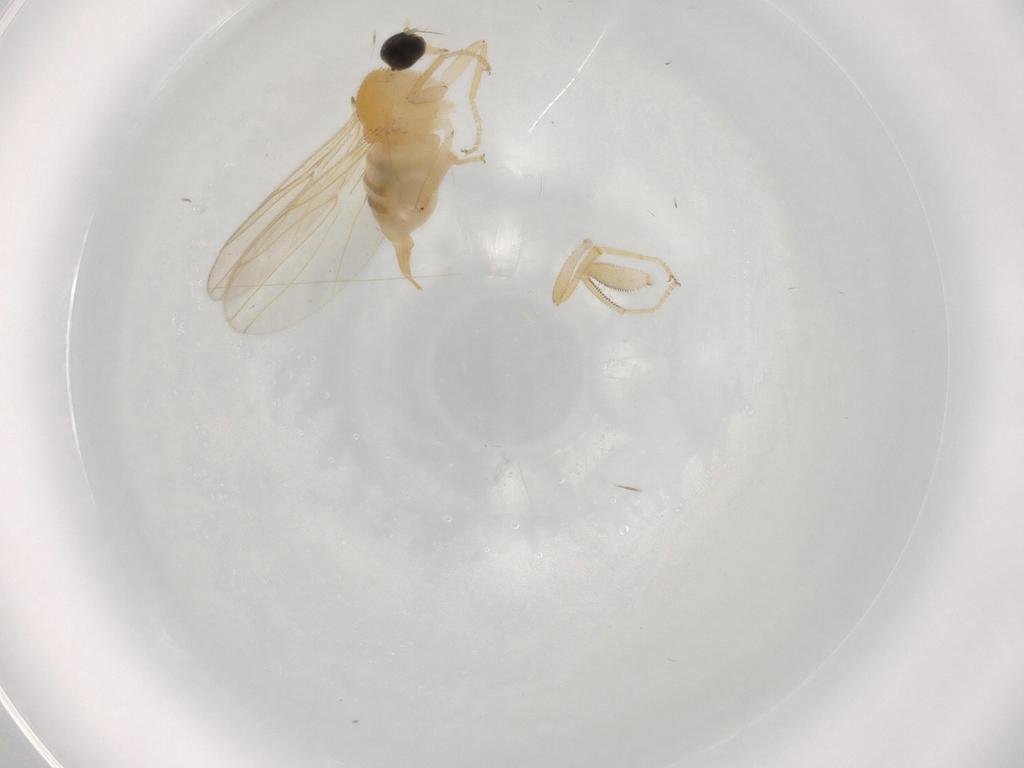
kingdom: Animalia
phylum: Arthropoda
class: Insecta
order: Diptera
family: Hybotidae
